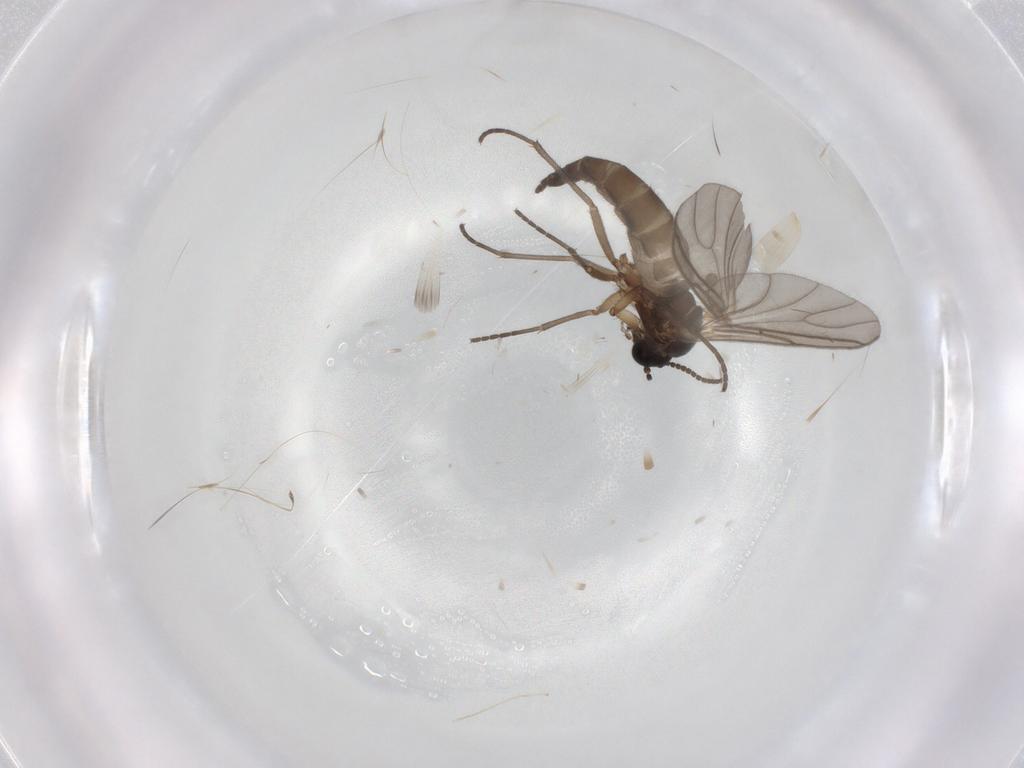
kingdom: Animalia
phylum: Arthropoda
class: Insecta
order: Diptera
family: Sciaridae
